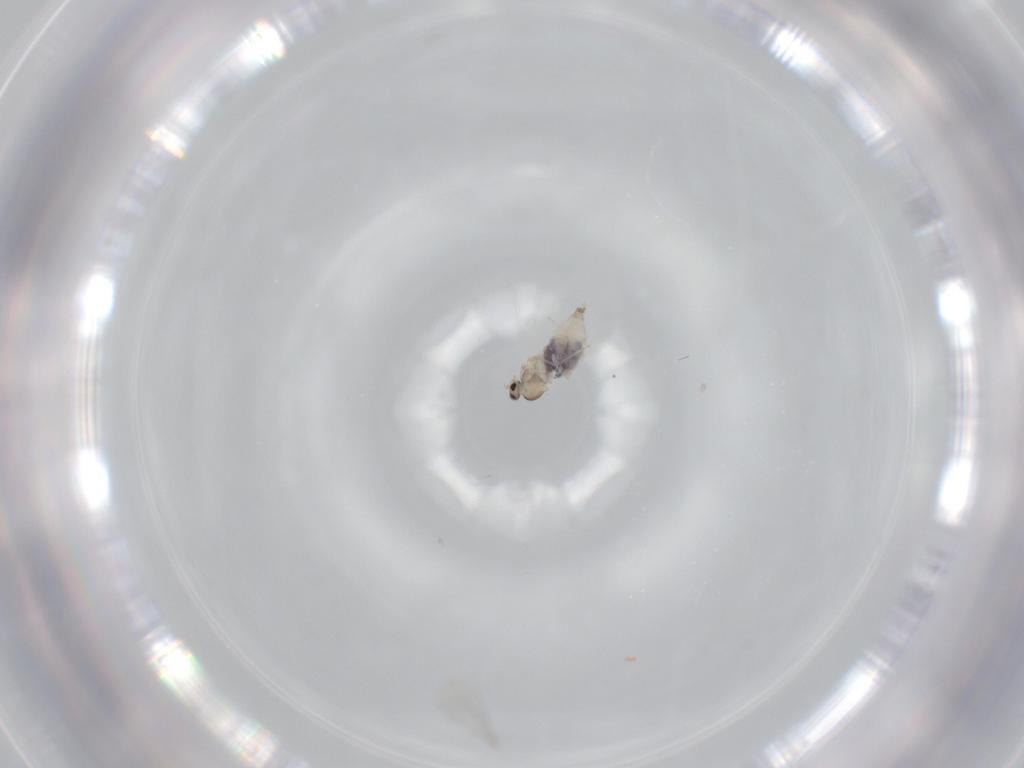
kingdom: Animalia
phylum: Arthropoda
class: Insecta
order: Diptera
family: Cecidomyiidae
